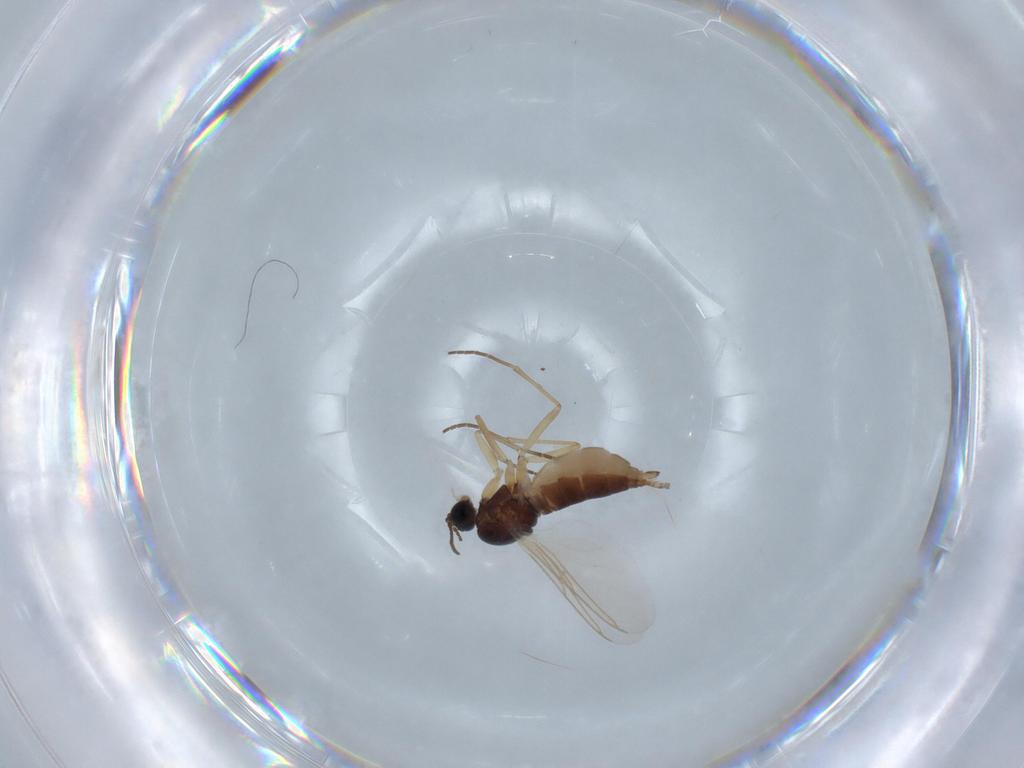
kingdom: Animalia
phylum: Arthropoda
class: Insecta
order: Diptera
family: Sciaridae
